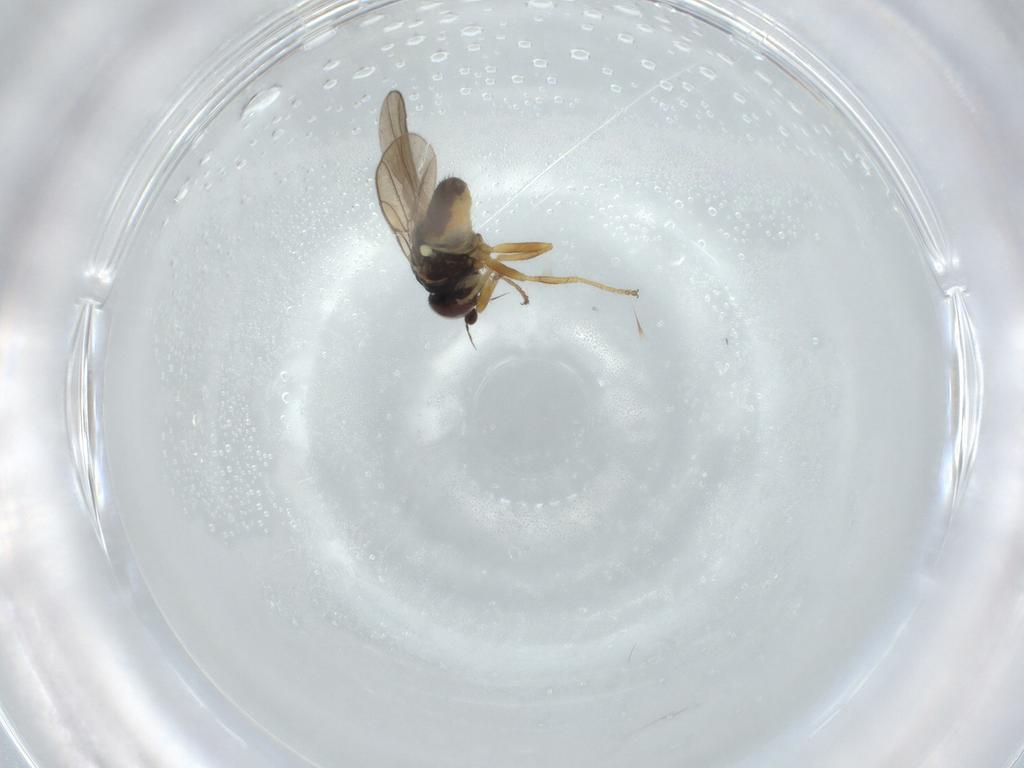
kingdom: Animalia
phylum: Arthropoda
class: Insecta
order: Diptera
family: Chloropidae
